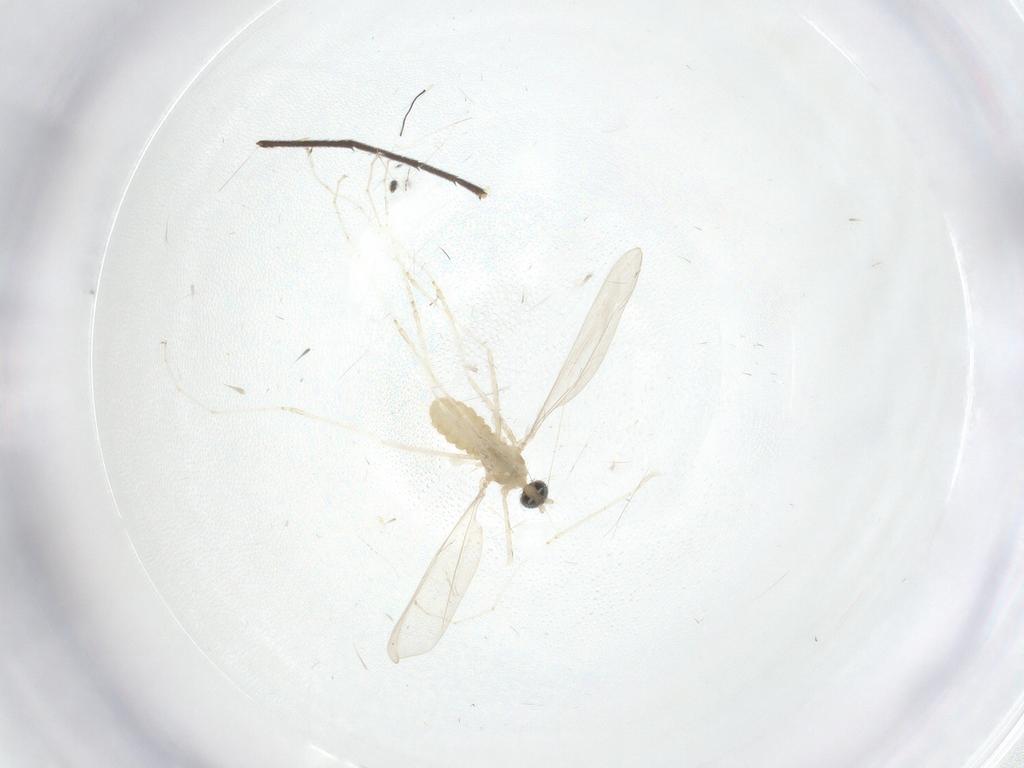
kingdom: Animalia
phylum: Arthropoda
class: Insecta
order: Diptera
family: Mycetophilidae
